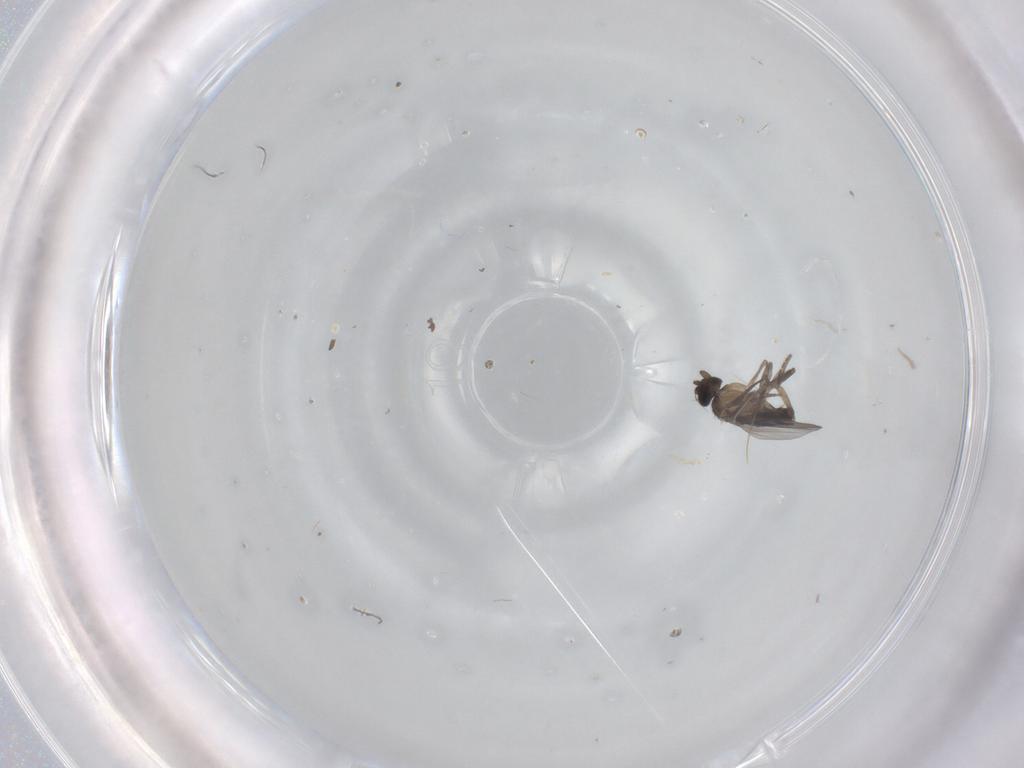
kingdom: Animalia
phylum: Arthropoda
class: Insecta
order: Diptera
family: Phoridae
